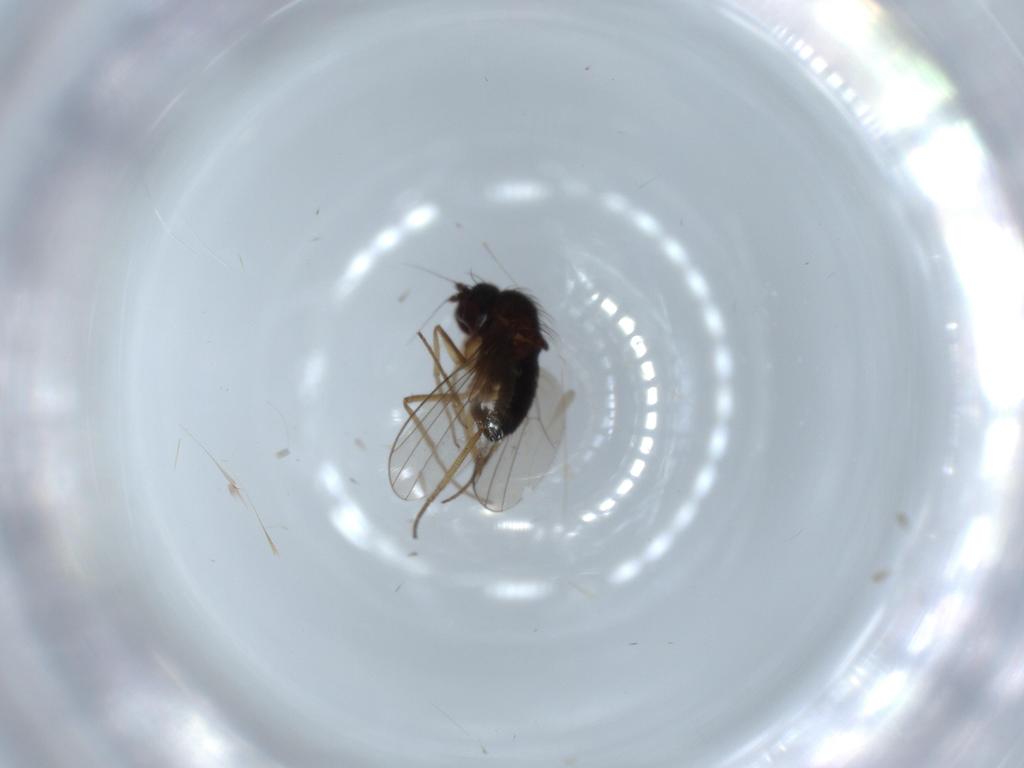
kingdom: Animalia
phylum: Arthropoda
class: Insecta
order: Diptera
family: Dolichopodidae
